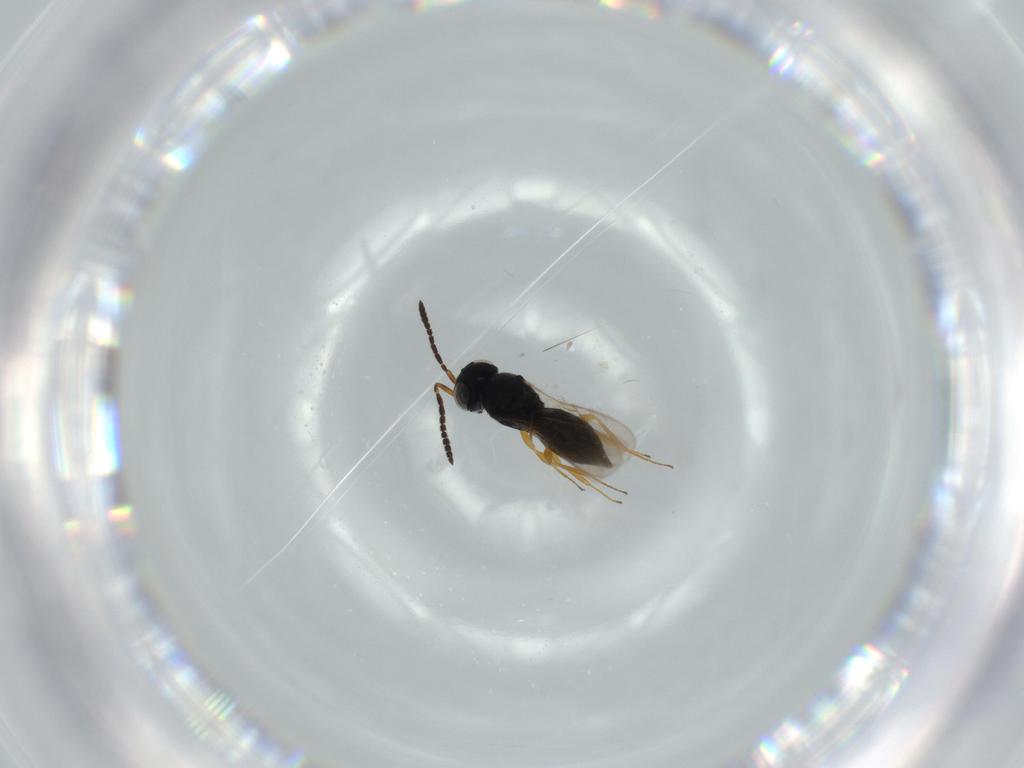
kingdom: Animalia
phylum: Arthropoda
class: Insecta
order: Hymenoptera
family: Scelionidae
